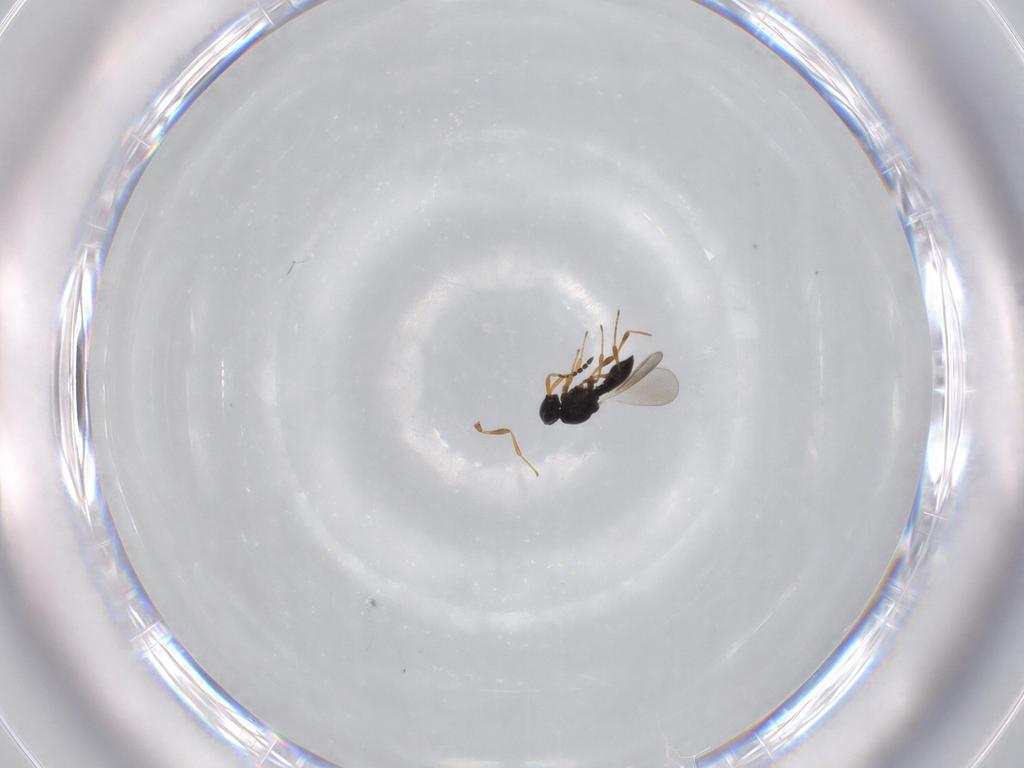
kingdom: Animalia
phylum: Arthropoda
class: Insecta
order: Hymenoptera
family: Platygastridae
